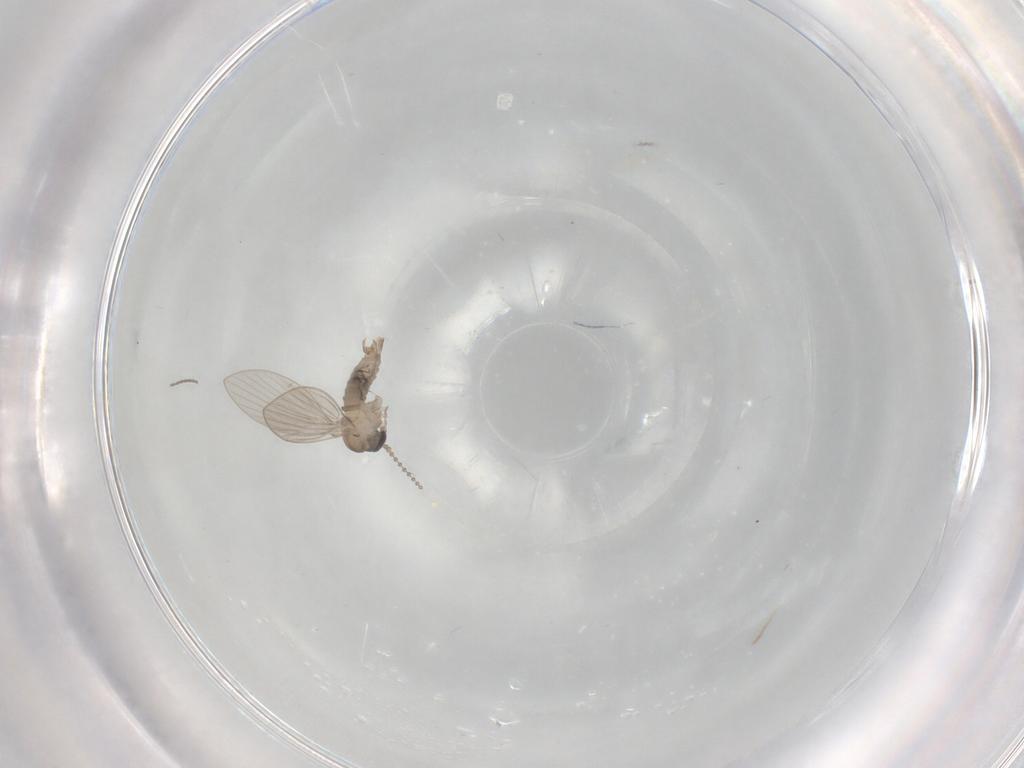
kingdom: Animalia
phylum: Arthropoda
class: Insecta
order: Diptera
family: Psychodidae
